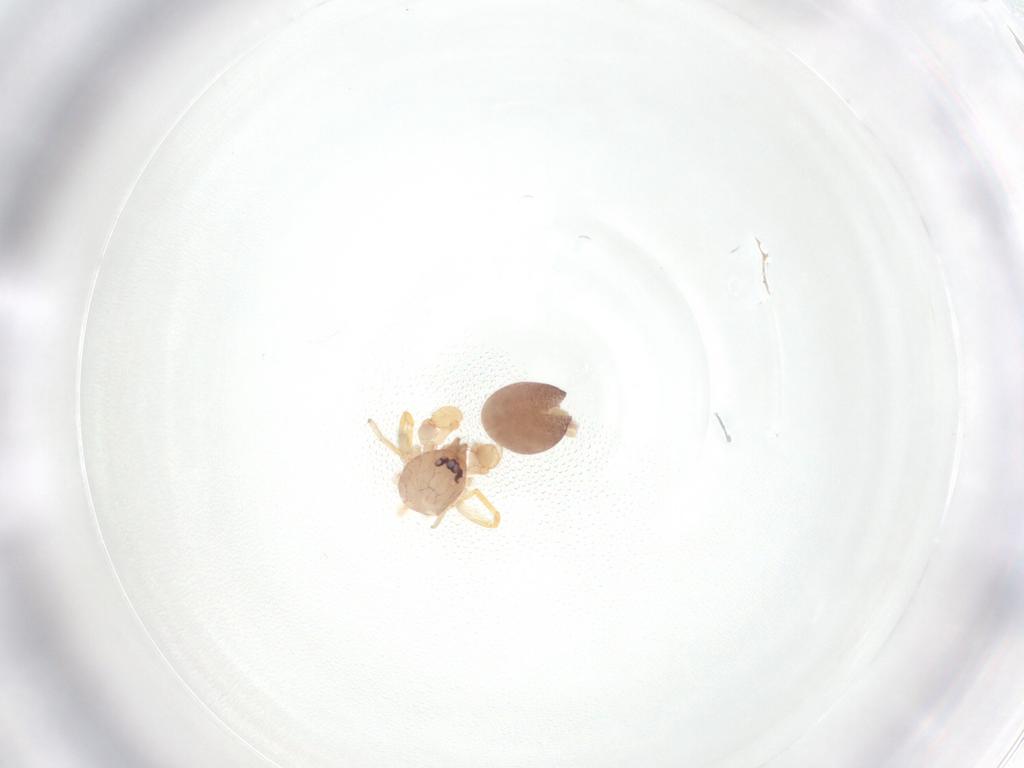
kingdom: Animalia
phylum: Arthropoda
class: Arachnida
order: Araneae
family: Idiopidae
